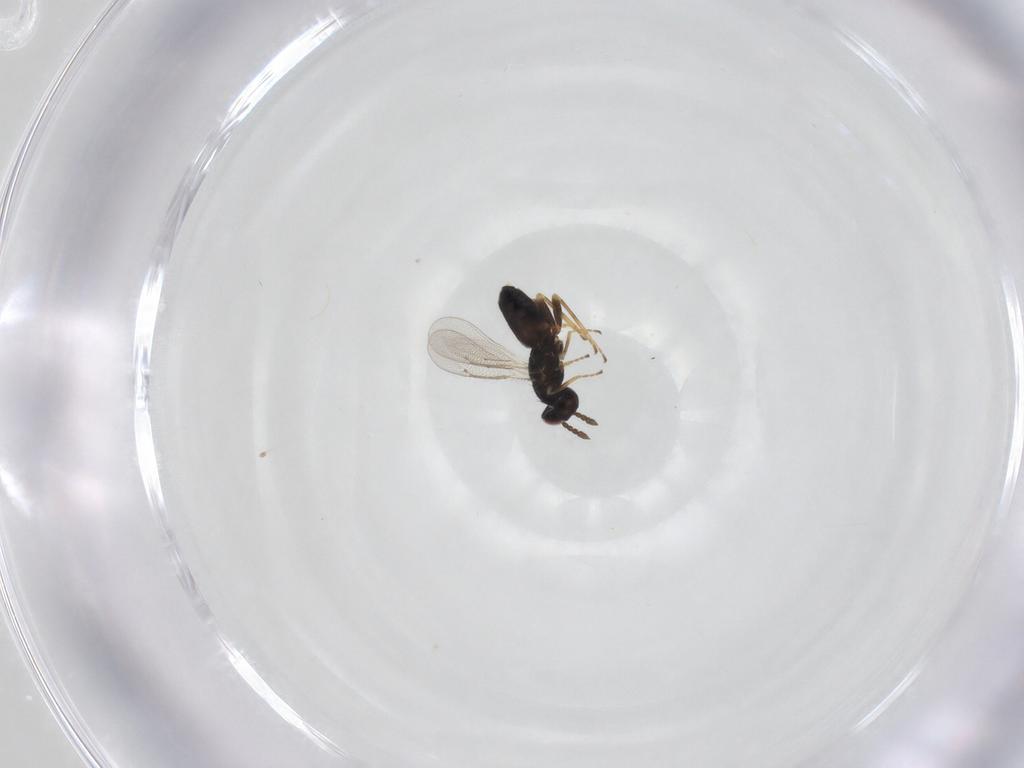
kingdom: Animalia
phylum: Arthropoda
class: Insecta
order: Hymenoptera
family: Eulophidae
